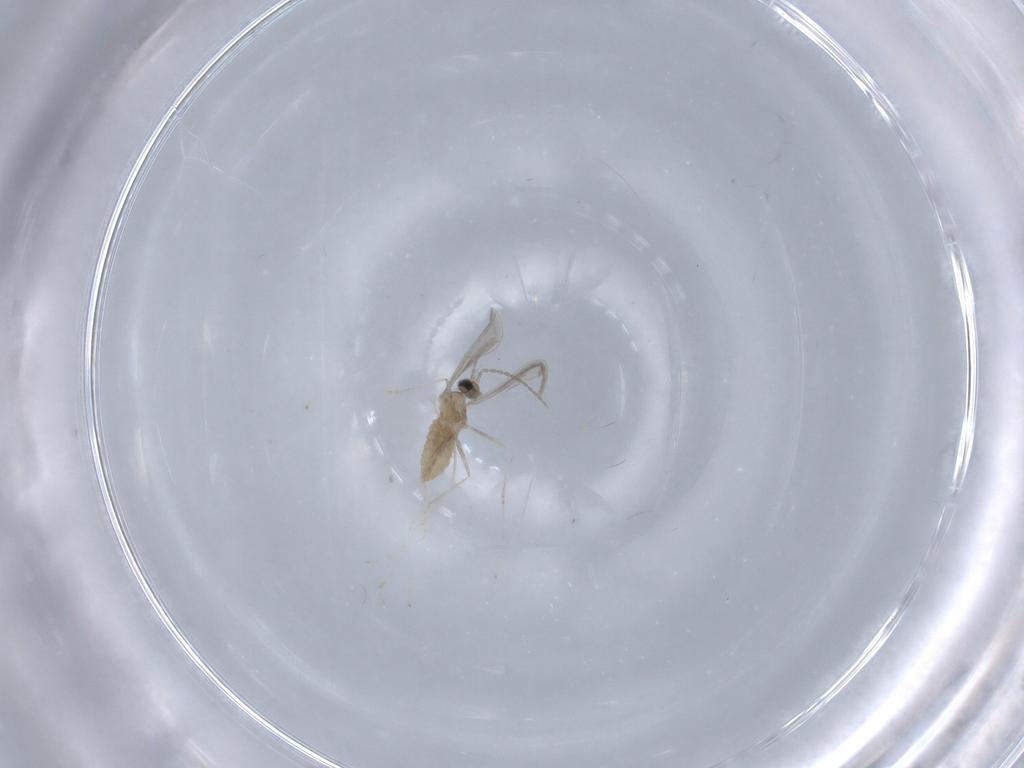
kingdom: Animalia
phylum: Arthropoda
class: Insecta
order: Diptera
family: Cecidomyiidae
